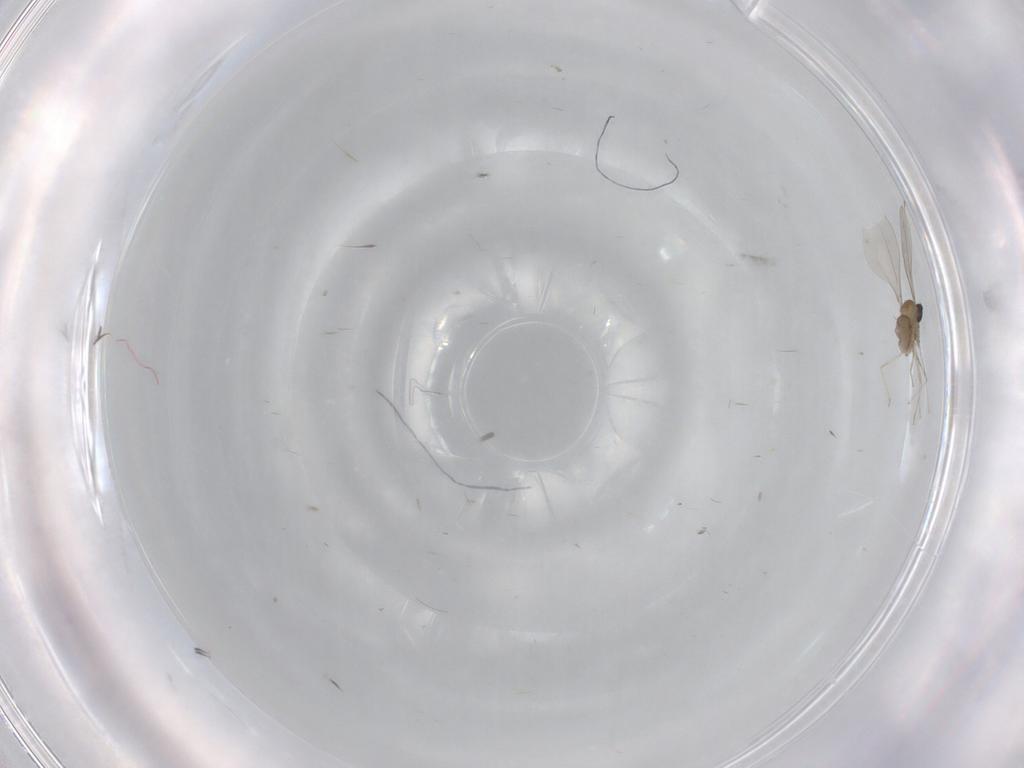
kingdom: Animalia
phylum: Arthropoda
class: Insecta
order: Diptera
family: Cecidomyiidae
